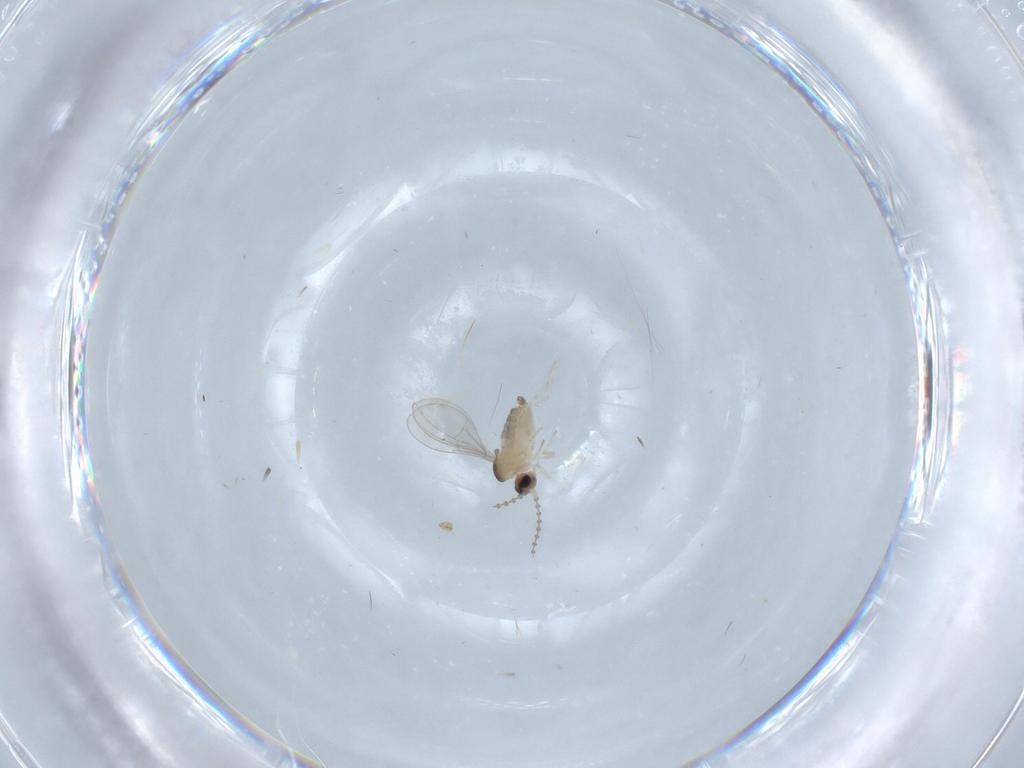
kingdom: Animalia
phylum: Arthropoda
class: Insecta
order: Diptera
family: Cecidomyiidae
